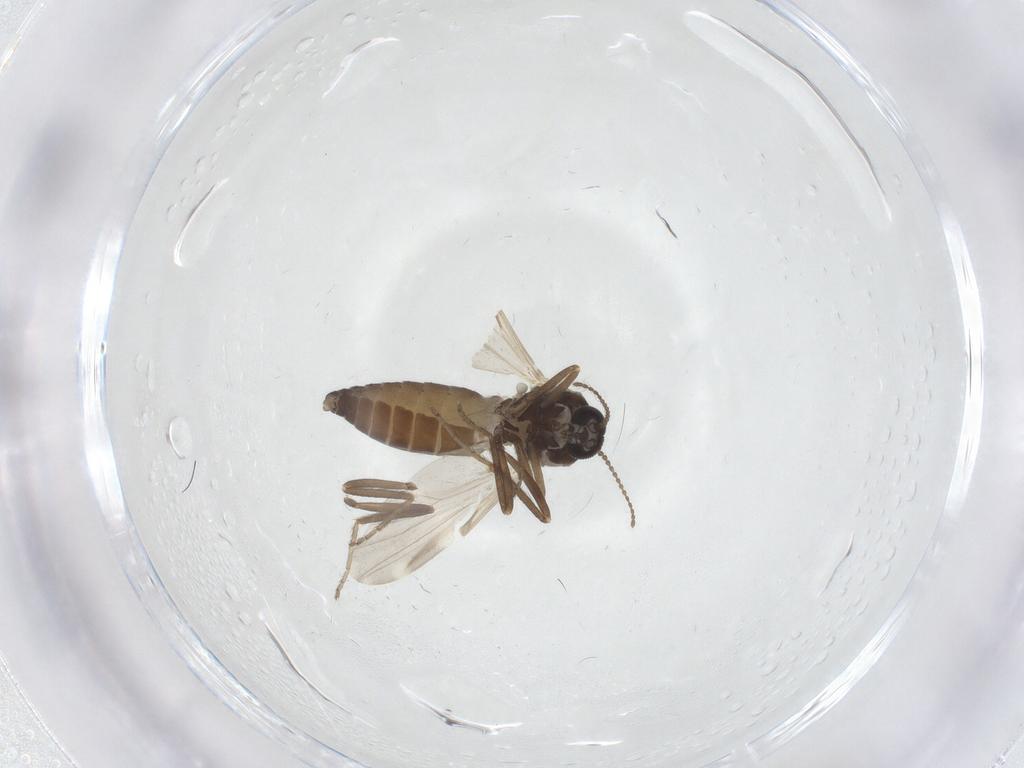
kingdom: Animalia
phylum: Arthropoda
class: Insecta
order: Diptera
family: Ceratopogonidae
